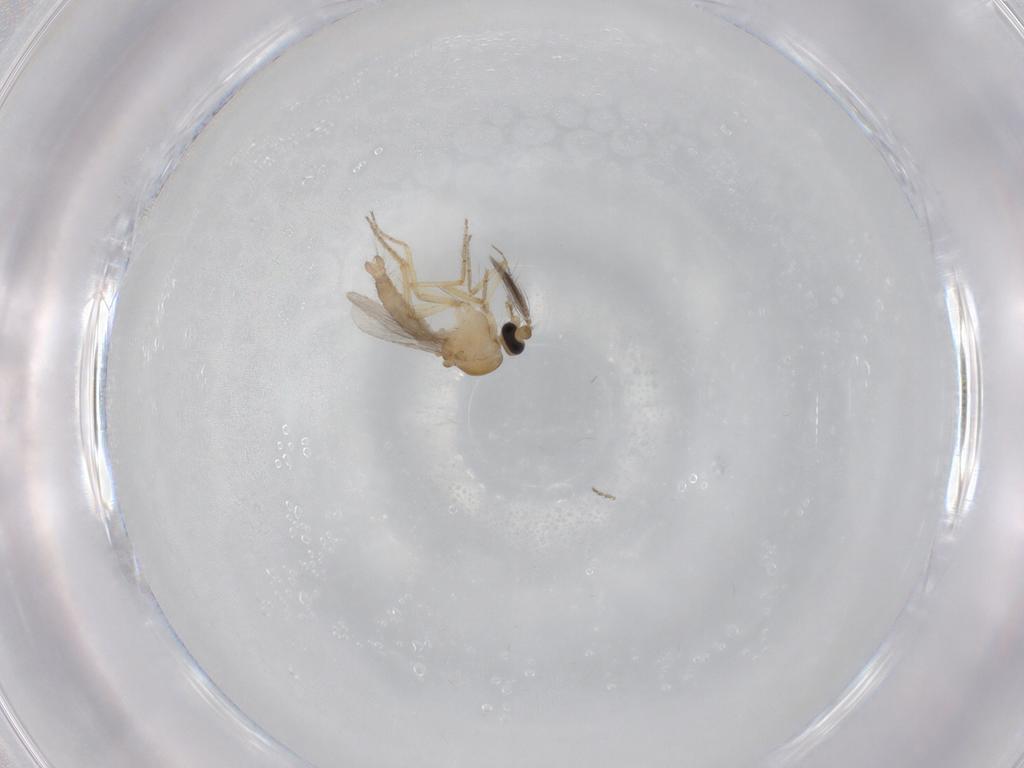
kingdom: Animalia
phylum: Arthropoda
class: Insecta
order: Diptera
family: Ceratopogonidae
